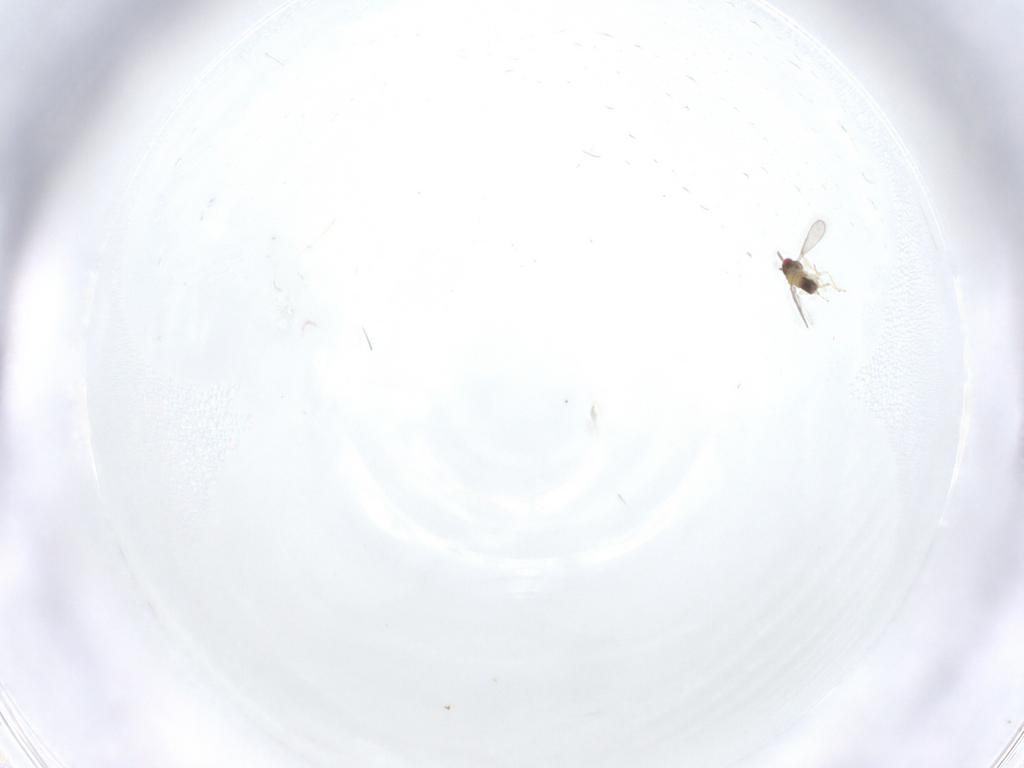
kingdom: Animalia
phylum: Arthropoda
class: Insecta
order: Hymenoptera
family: Aphelinidae
